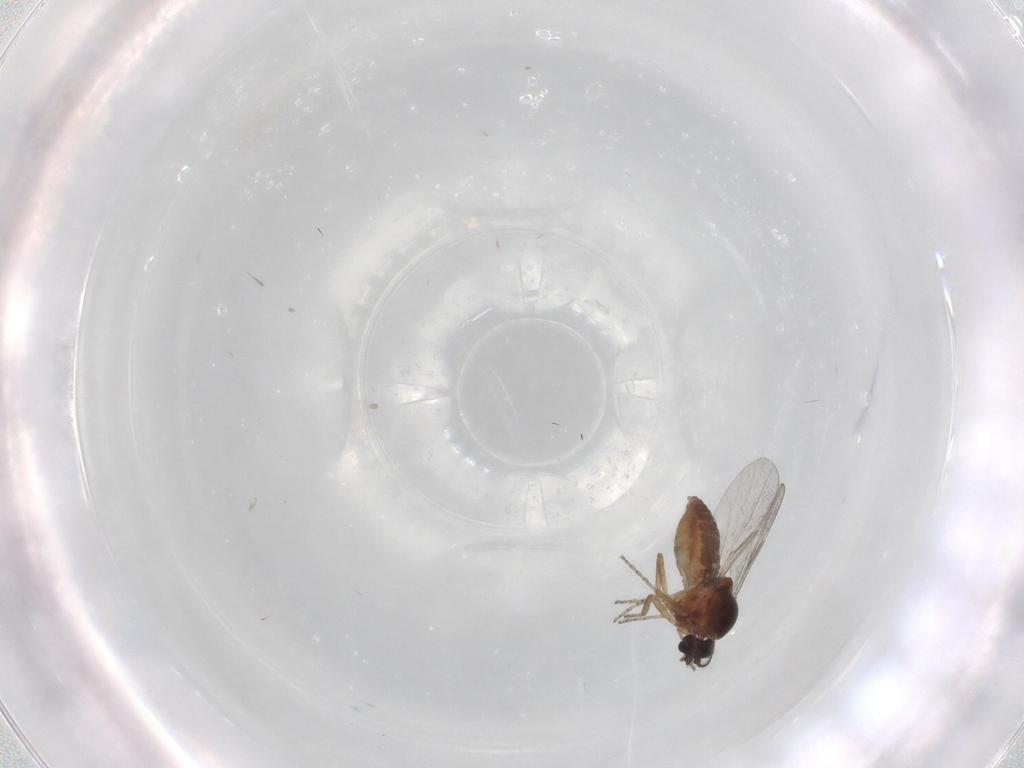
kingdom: Animalia
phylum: Arthropoda
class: Insecta
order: Diptera
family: Ceratopogonidae
